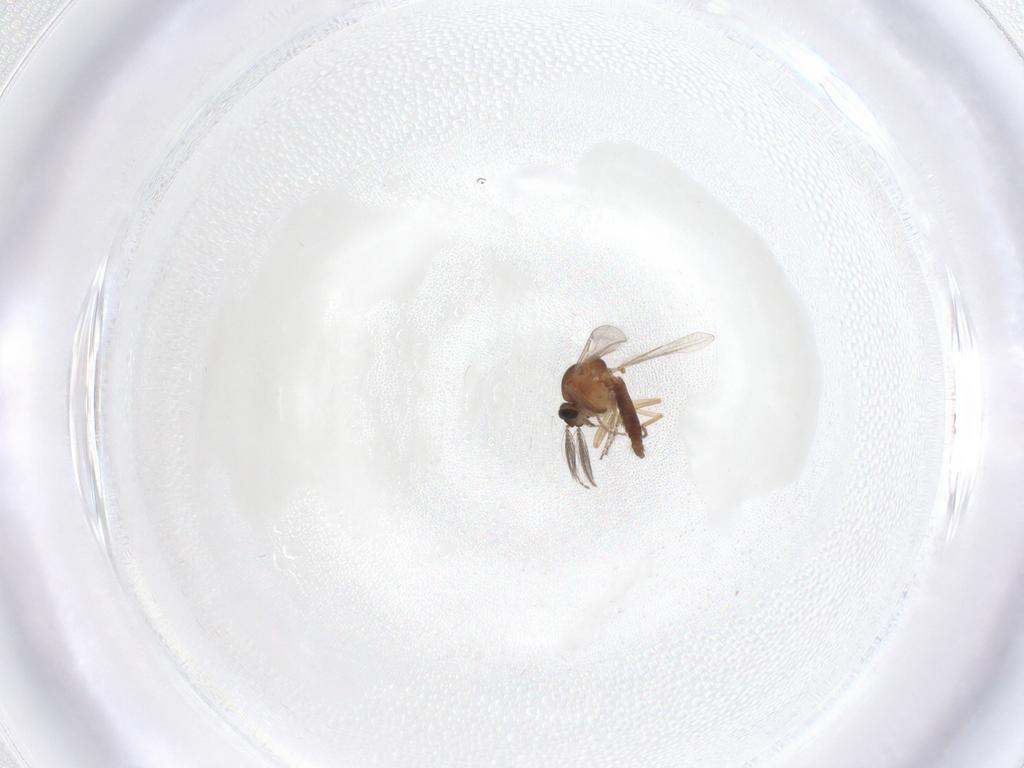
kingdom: Animalia
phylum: Arthropoda
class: Insecta
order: Diptera
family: Ceratopogonidae
